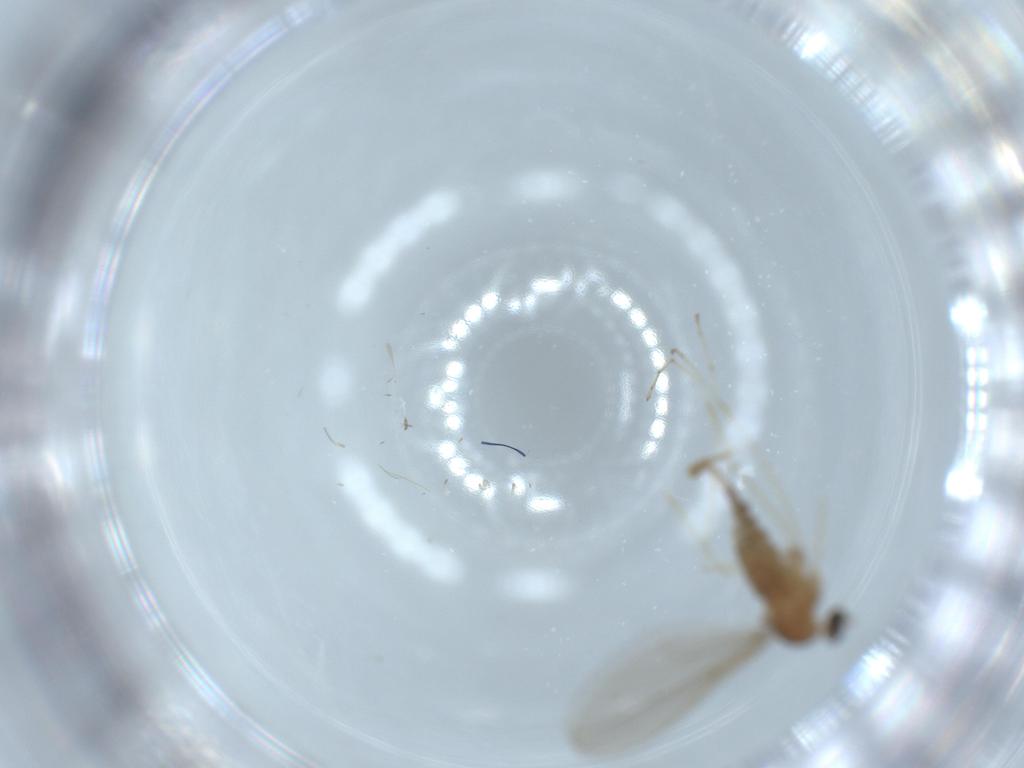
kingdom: Animalia
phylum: Arthropoda
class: Insecta
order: Diptera
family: Cecidomyiidae
